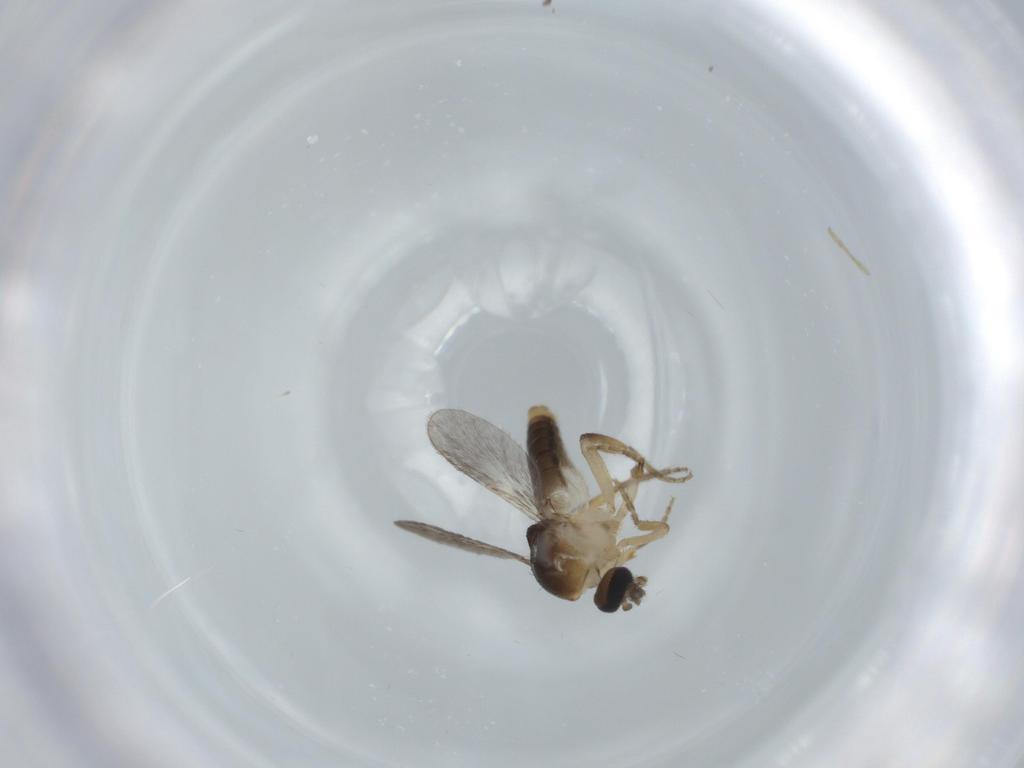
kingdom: Animalia
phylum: Arthropoda
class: Insecta
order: Diptera
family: Ceratopogonidae
